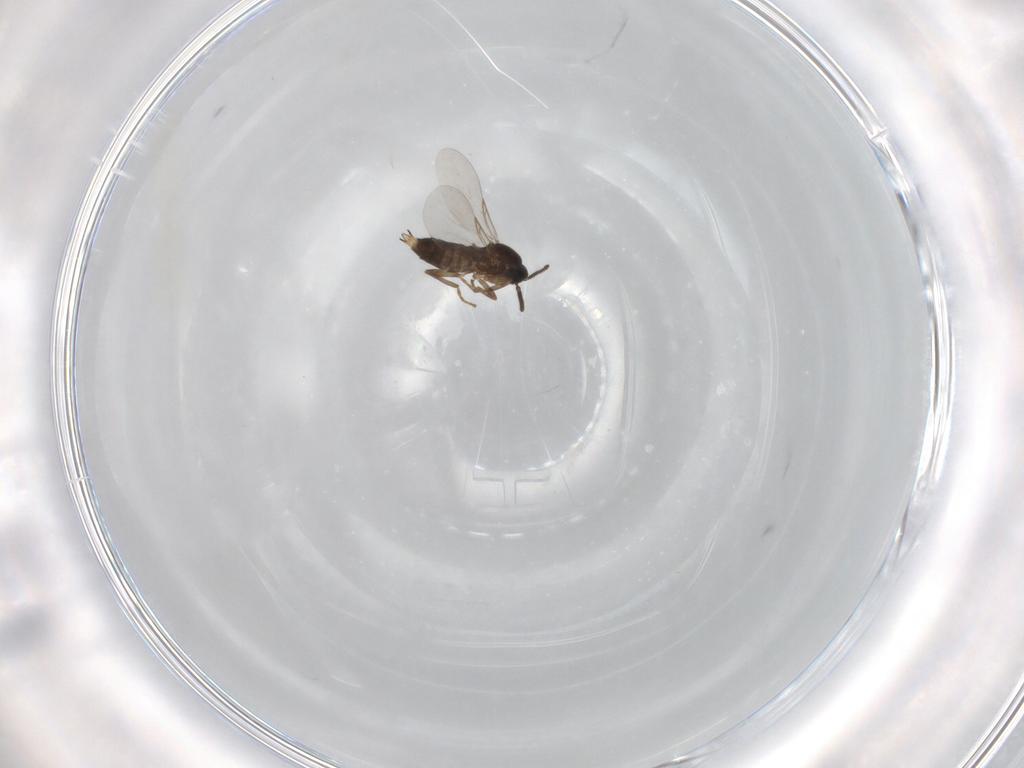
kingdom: Animalia
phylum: Arthropoda
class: Insecta
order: Diptera
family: Scatopsidae
